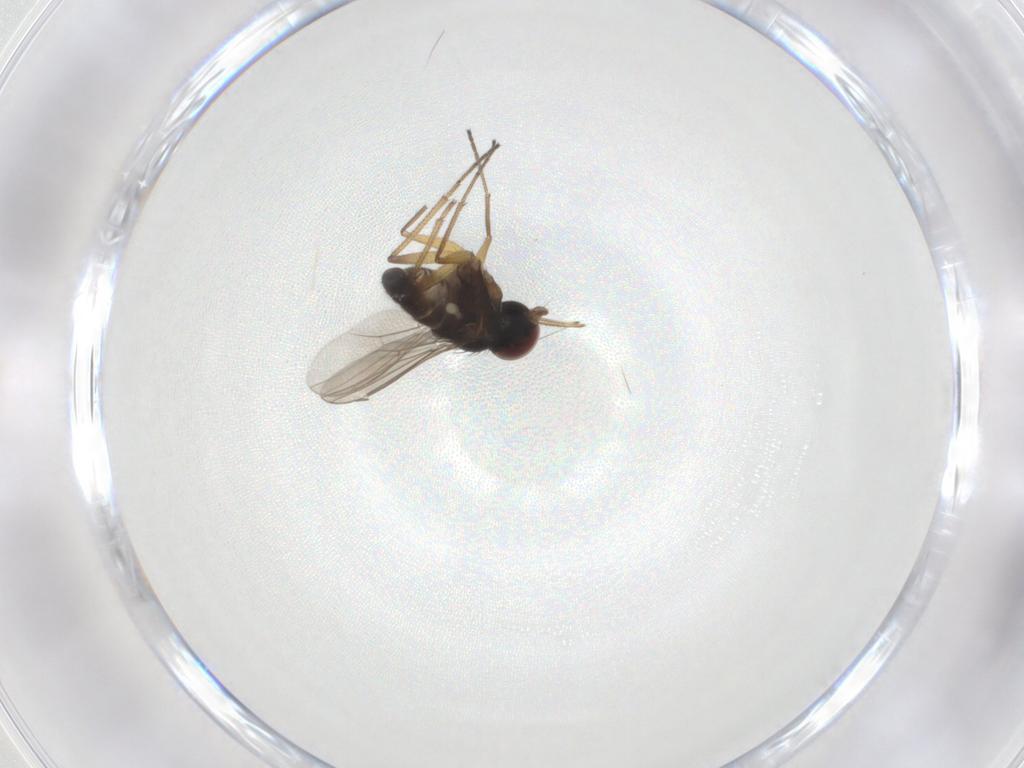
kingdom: Animalia
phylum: Arthropoda
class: Insecta
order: Diptera
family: Dolichopodidae
